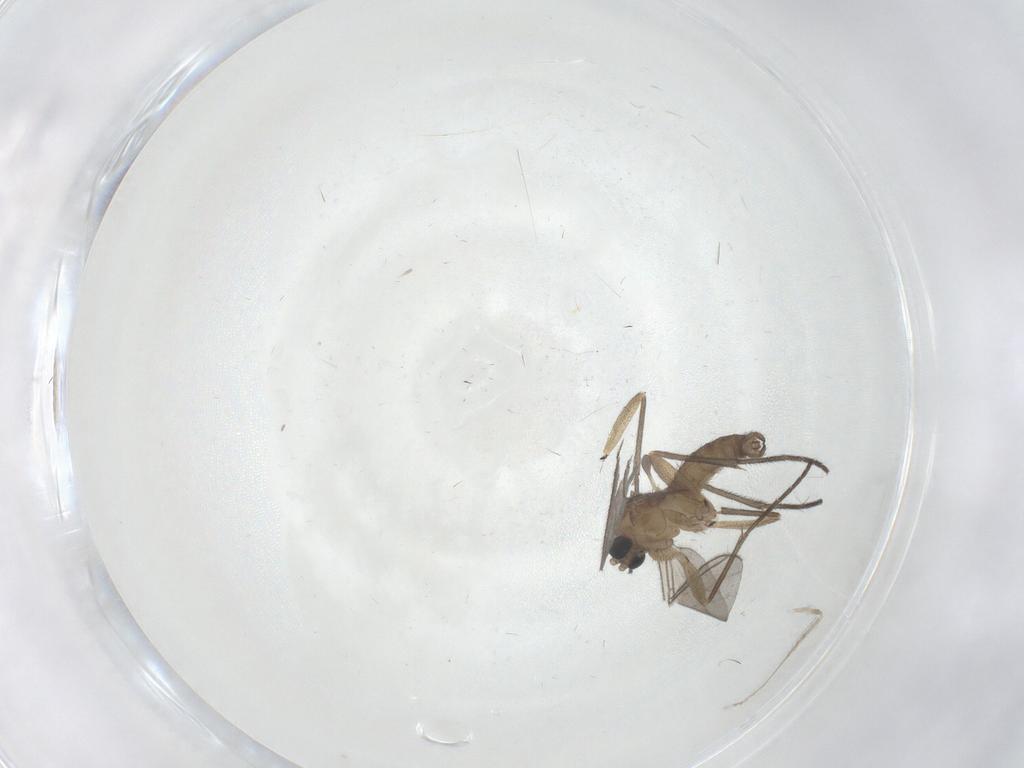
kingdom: Animalia
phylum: Arthropoda
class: Insecta
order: Diptera
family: Sciaridae
